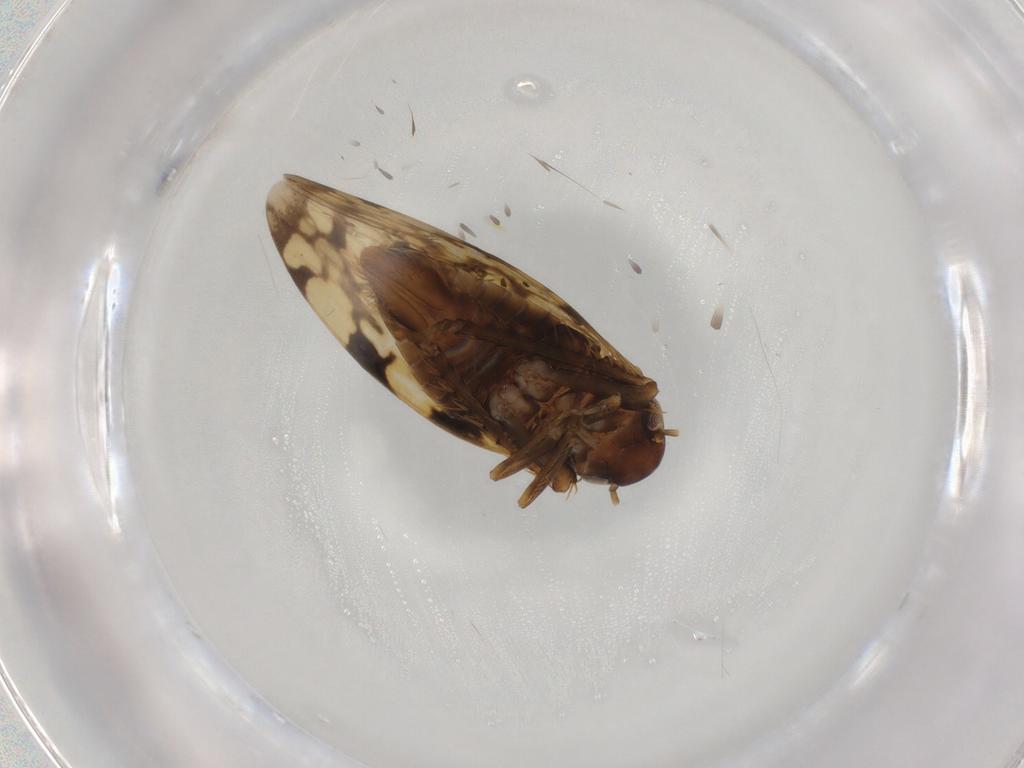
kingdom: Animalia
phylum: Arthropoda
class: Insecta
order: Hemiptera
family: Cicadellidae
